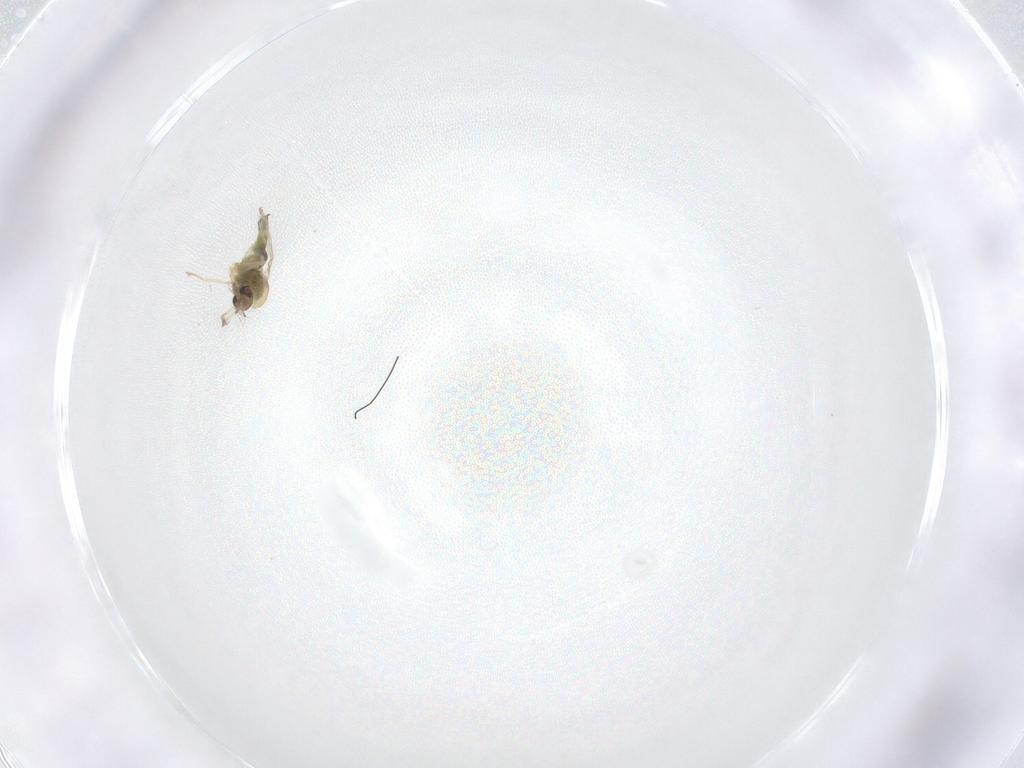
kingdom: Animalia
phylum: Arthropoda
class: Insecta
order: Diptera
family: Chironomidae
